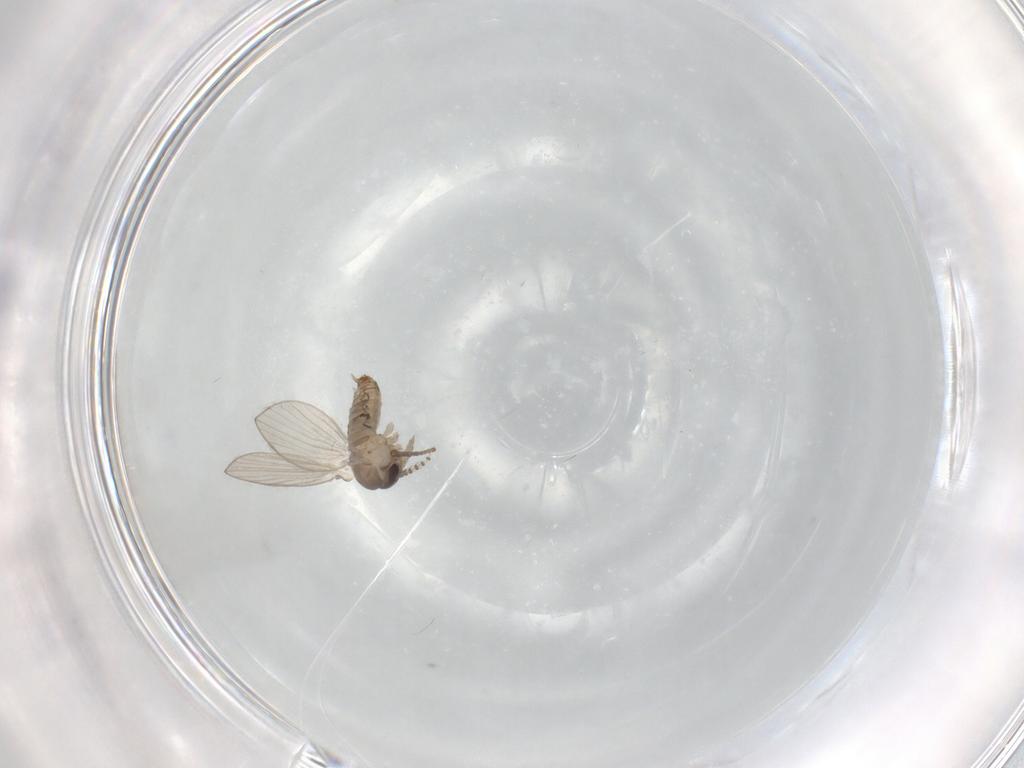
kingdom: Animalia
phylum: Arthropoda
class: Insecta
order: Diptera
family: Psychodidae
